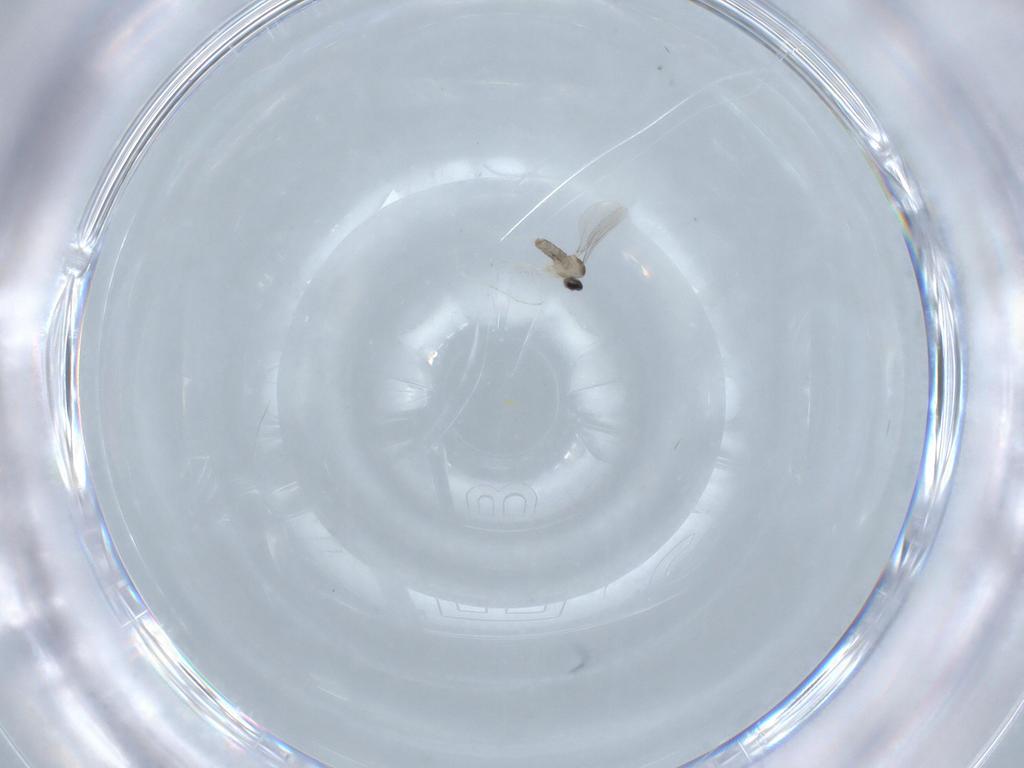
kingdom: Animalia
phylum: Arthropoda
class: Insecta
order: Diptera
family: Cecidomyiidae
